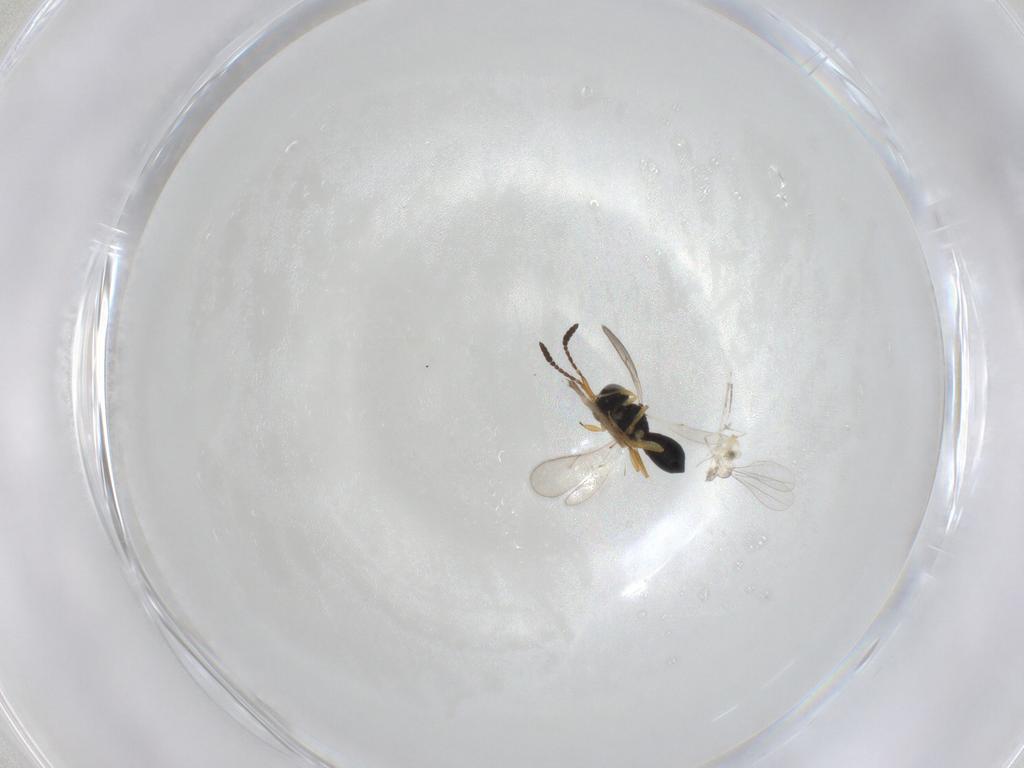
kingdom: Animalia
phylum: Arthropoda
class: Insecta
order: Hymenoptera
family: Scelionidae
